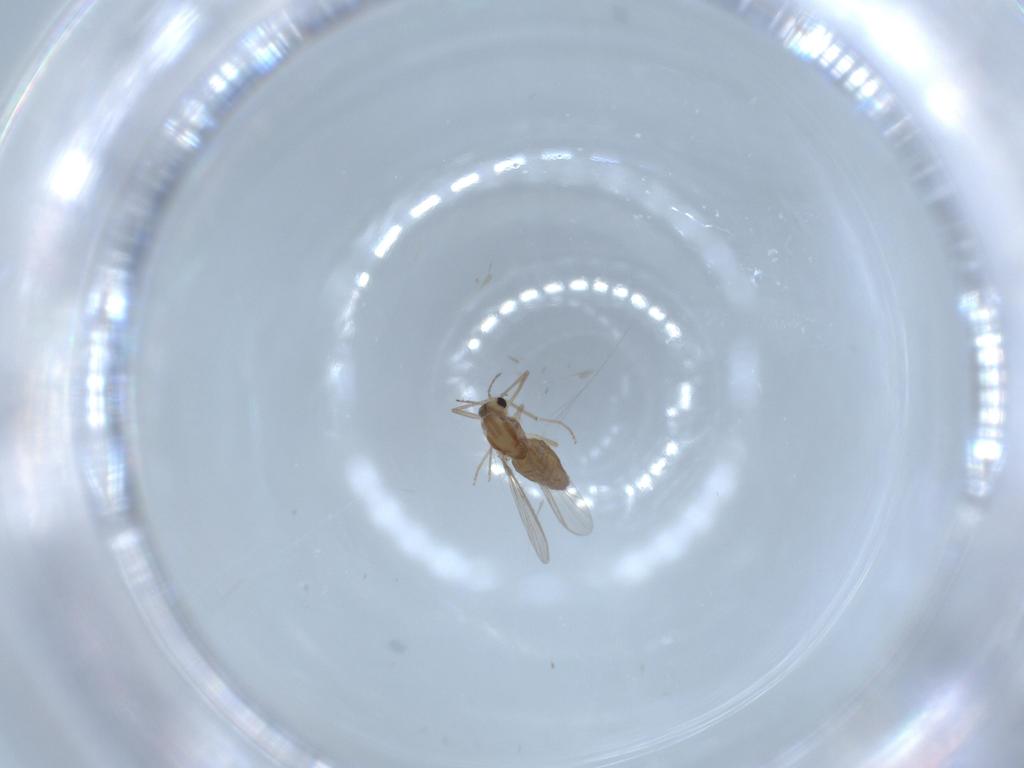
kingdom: Animalia
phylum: Arthropoda
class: Insecta
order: Diptera
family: Chironomidae
